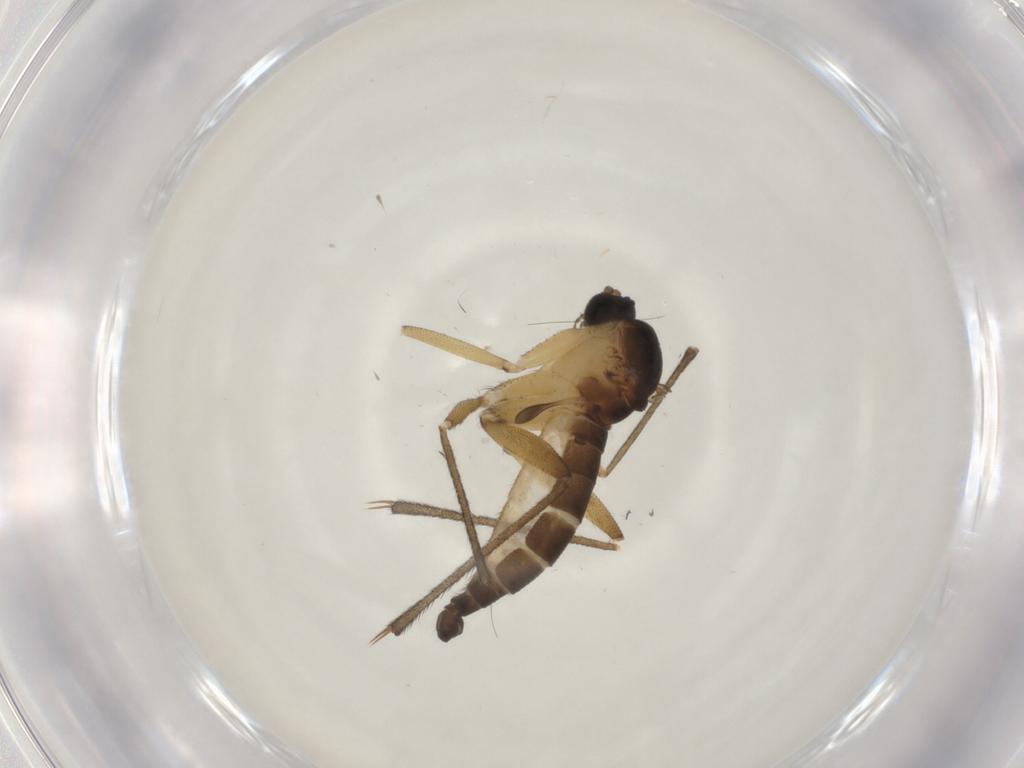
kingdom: Animalia
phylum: Arthropoda
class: Insecta
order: Diptera
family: Sciaridae
